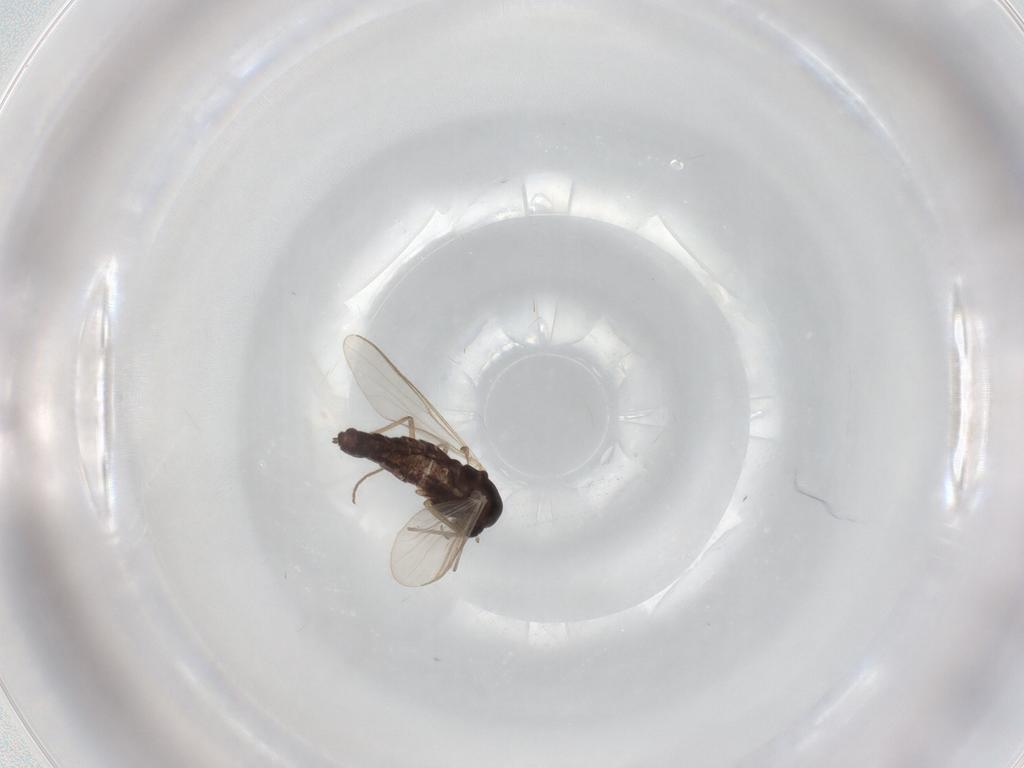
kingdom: Animalia
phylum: Arthropoda
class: Insecta
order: Diptera
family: Chironomidae
